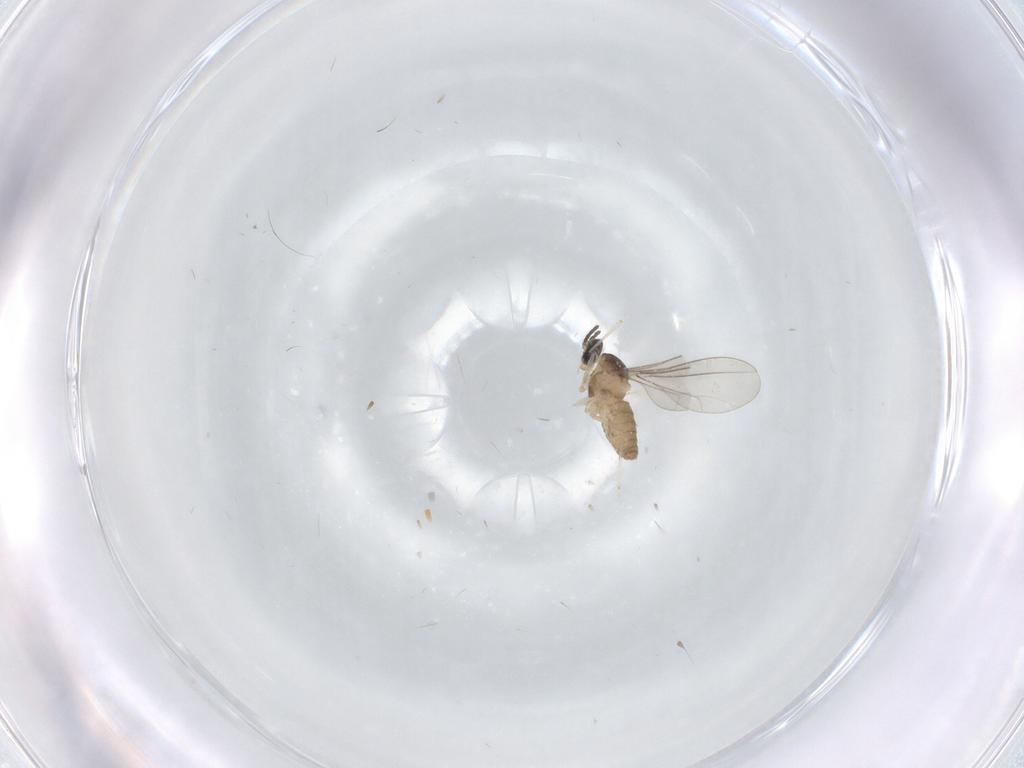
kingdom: Animalia
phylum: Arthropoda
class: Insecta
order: Diptera
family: Cecidomyiidae
